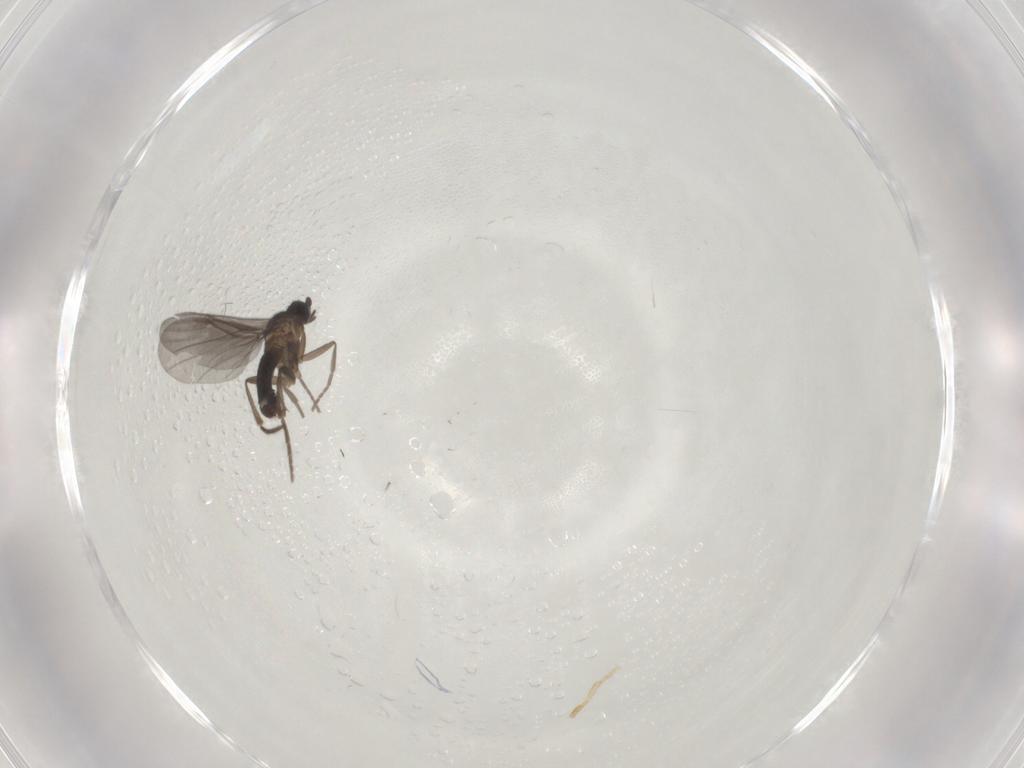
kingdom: Animalia
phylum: Arthropoda
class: Insecta
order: Diptera
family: Phoridae
